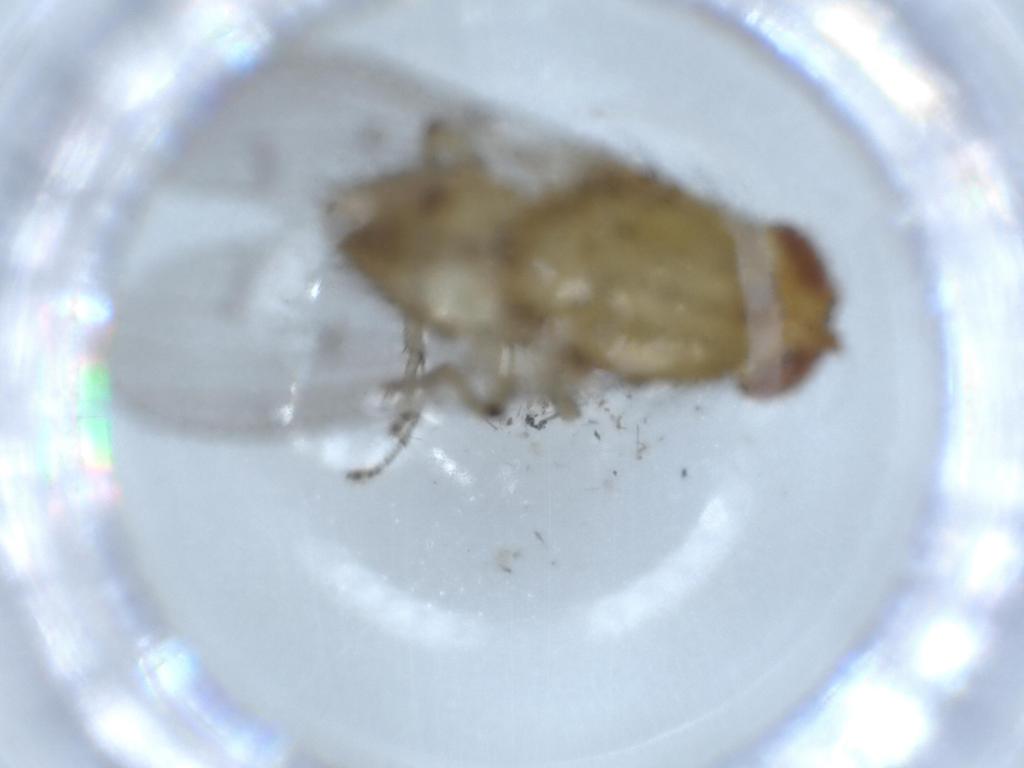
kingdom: Animalia
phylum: Arthropoda
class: Insecta
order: Diptera
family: Cecidomyiidae
